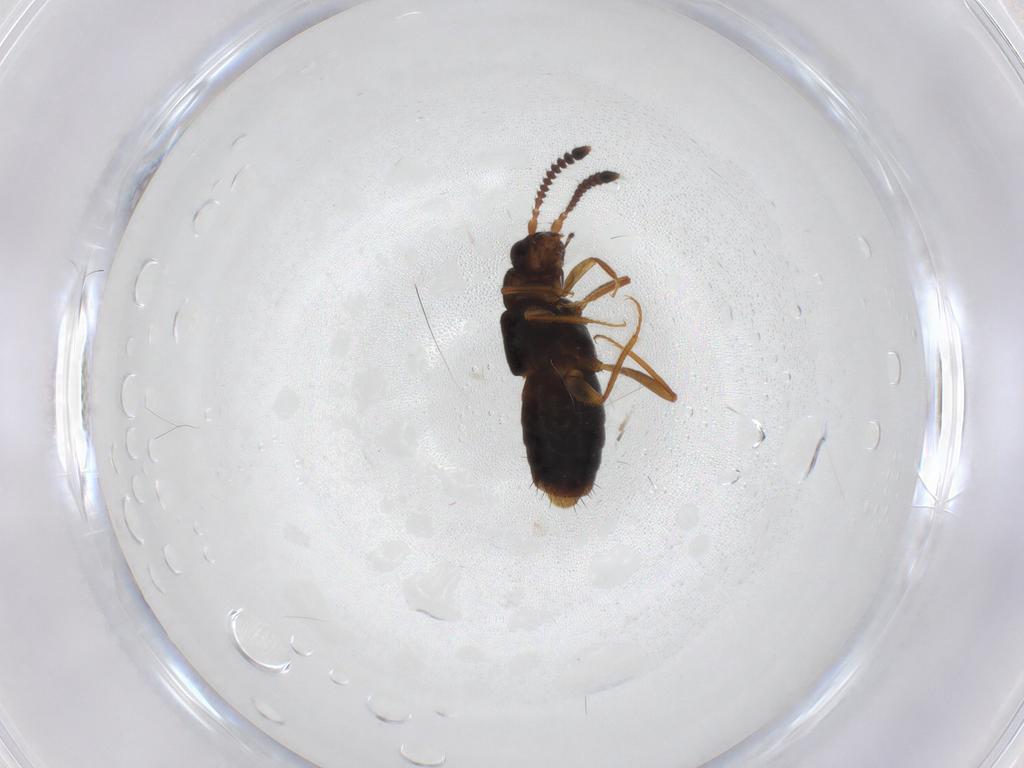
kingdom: Animalia
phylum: Arthropoda
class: Insecta
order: Coleoptera
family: Staphylinidae
